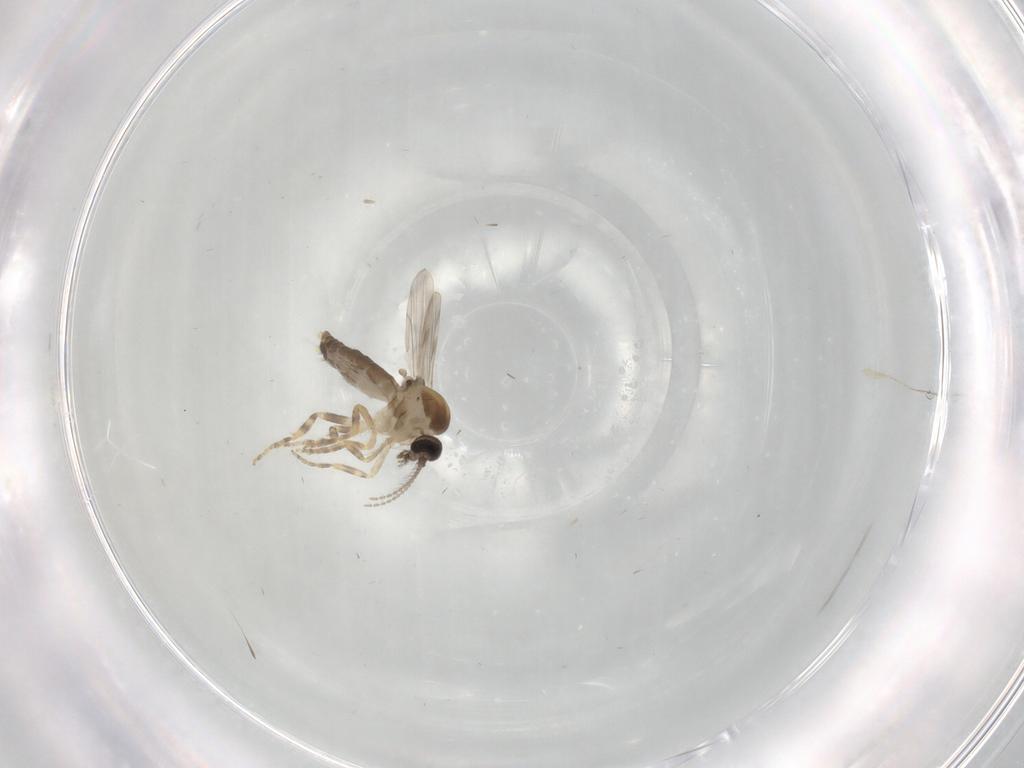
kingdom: Animalia
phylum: Arthropoda
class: Insecta
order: Diptera
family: Ceratopogonidae
